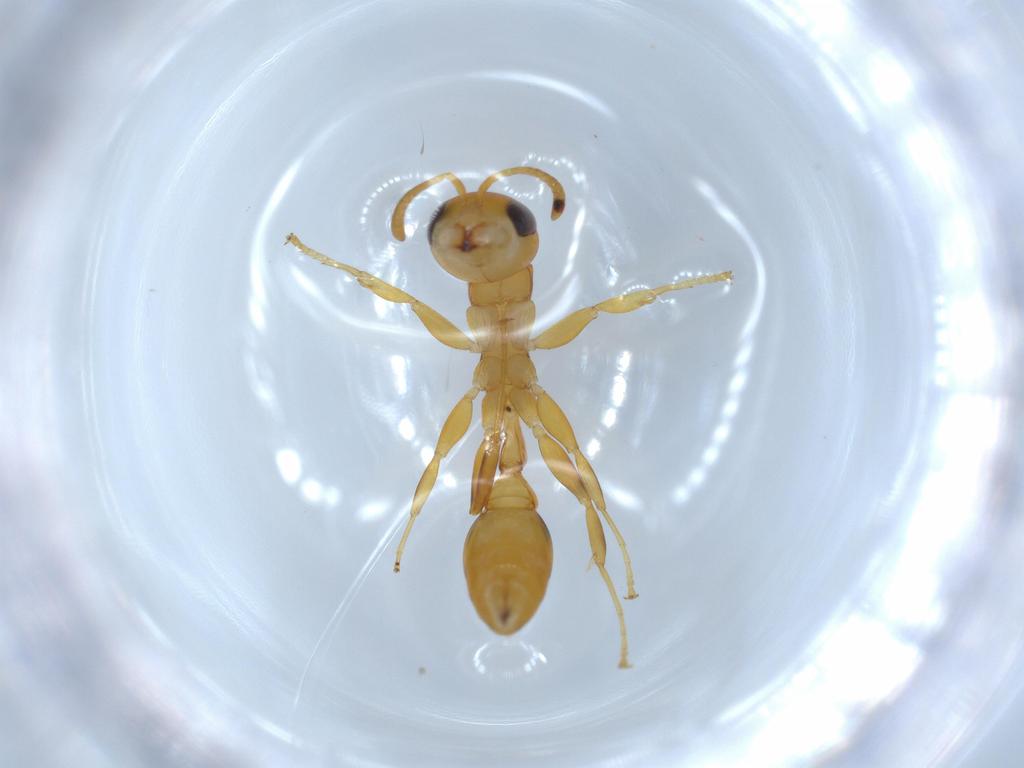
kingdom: Animalia
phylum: Arthropoda
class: Insecta
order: Hymenoptera
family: Formicidae
